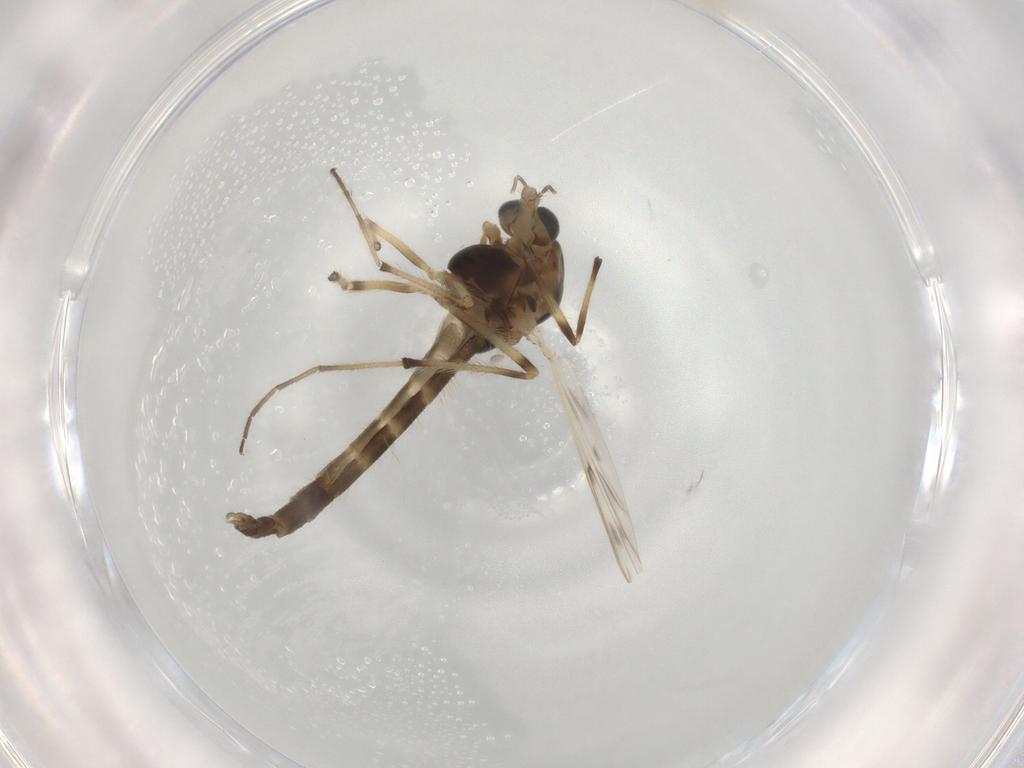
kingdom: Animalia
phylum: Arthropoda
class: Insecta
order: Diptera
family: Chironomidae
